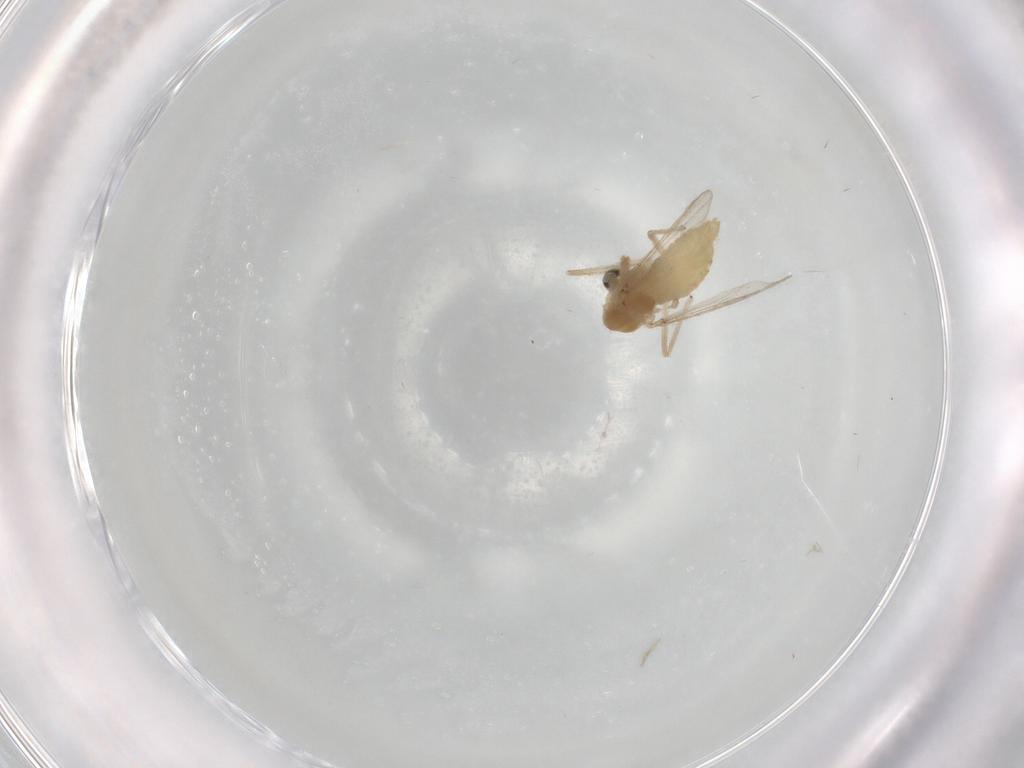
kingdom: Animalia
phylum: Arthropoda
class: Insecta
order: Diptera
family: Chironomidae
